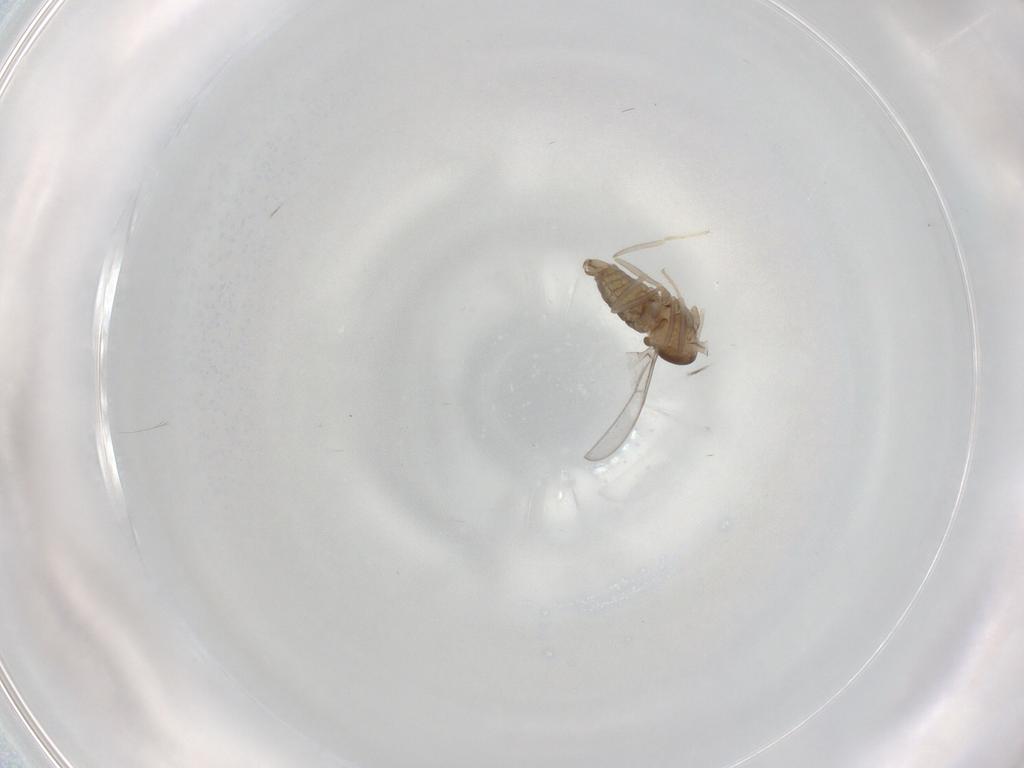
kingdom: Animalia
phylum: Arthropoda
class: Insecta
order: Diptera
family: Cecidomyiidae
